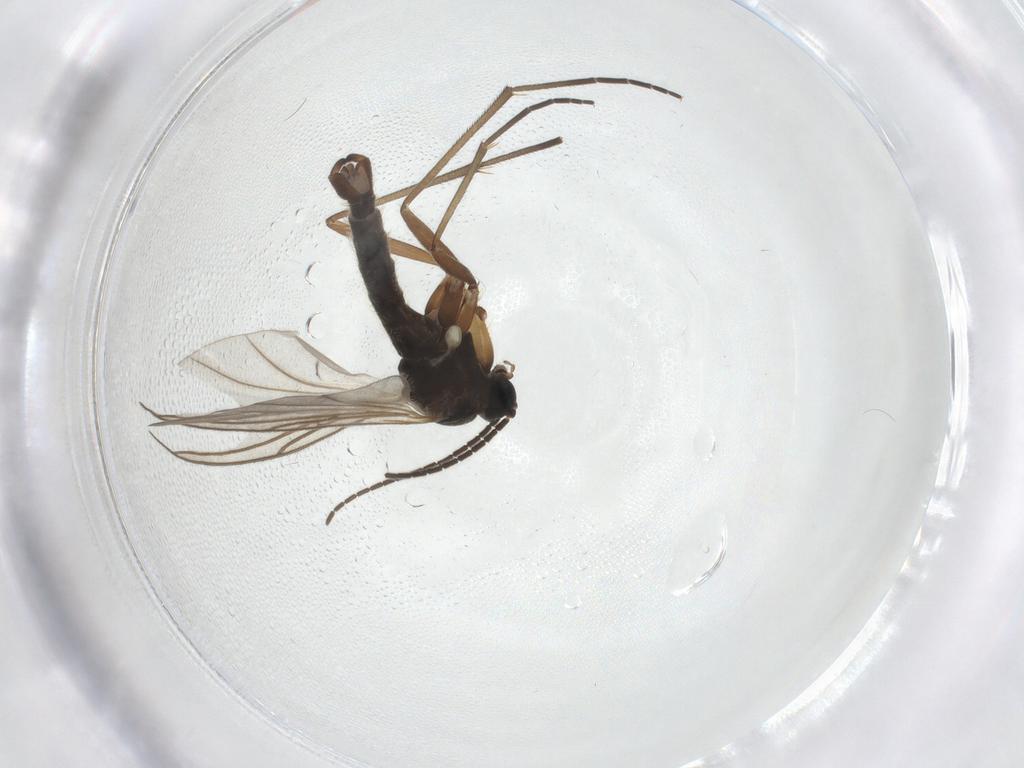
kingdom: Animalia
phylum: Arthropoda
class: Insecta
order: Diptera
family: Sciaridae
